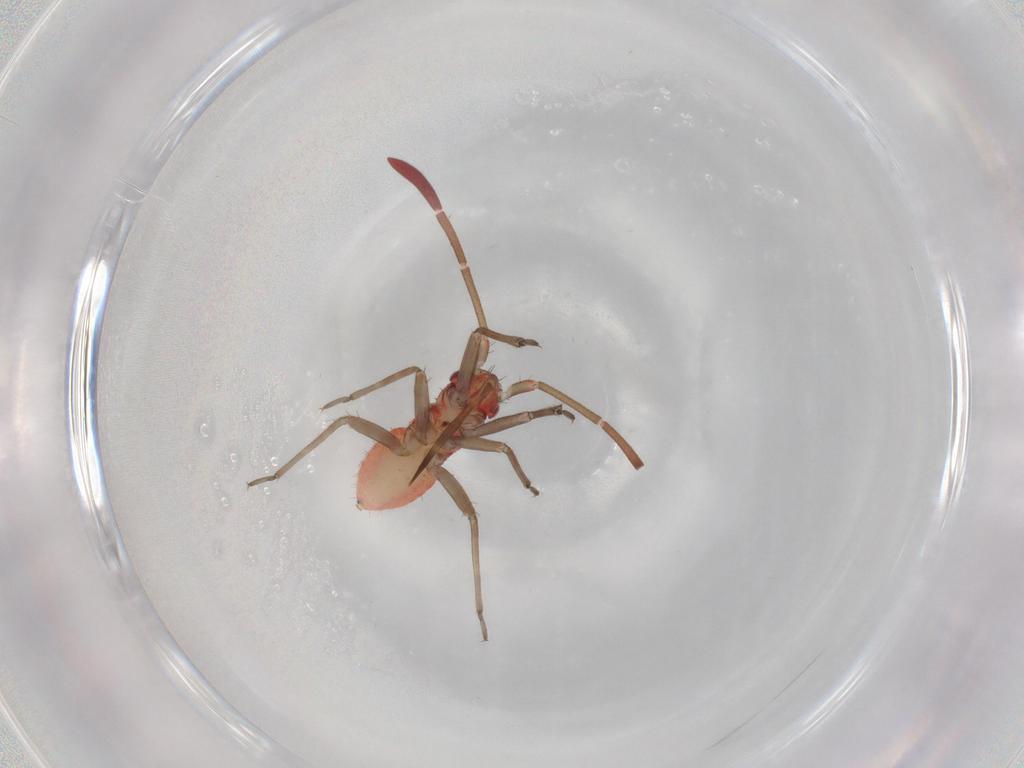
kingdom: Animalia
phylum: Arthropoda
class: Insecta
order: Hemiptera
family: Miridae
